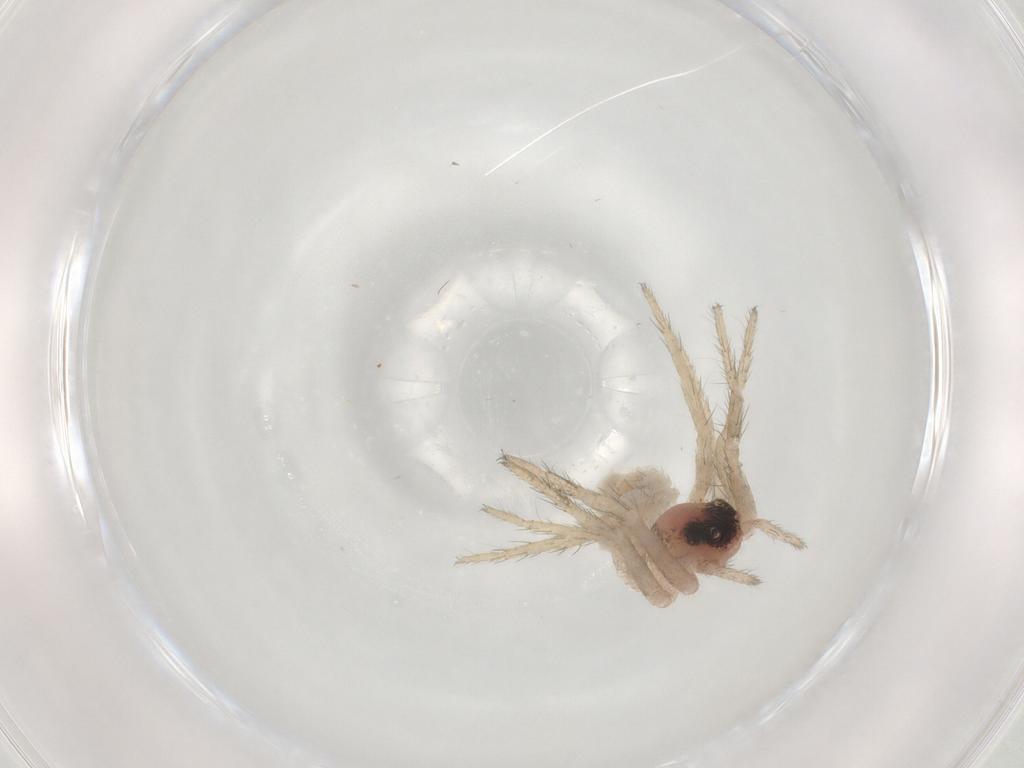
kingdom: Animalia
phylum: Arthropoda
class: Arachnida
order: Araneae
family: Lycosidae
